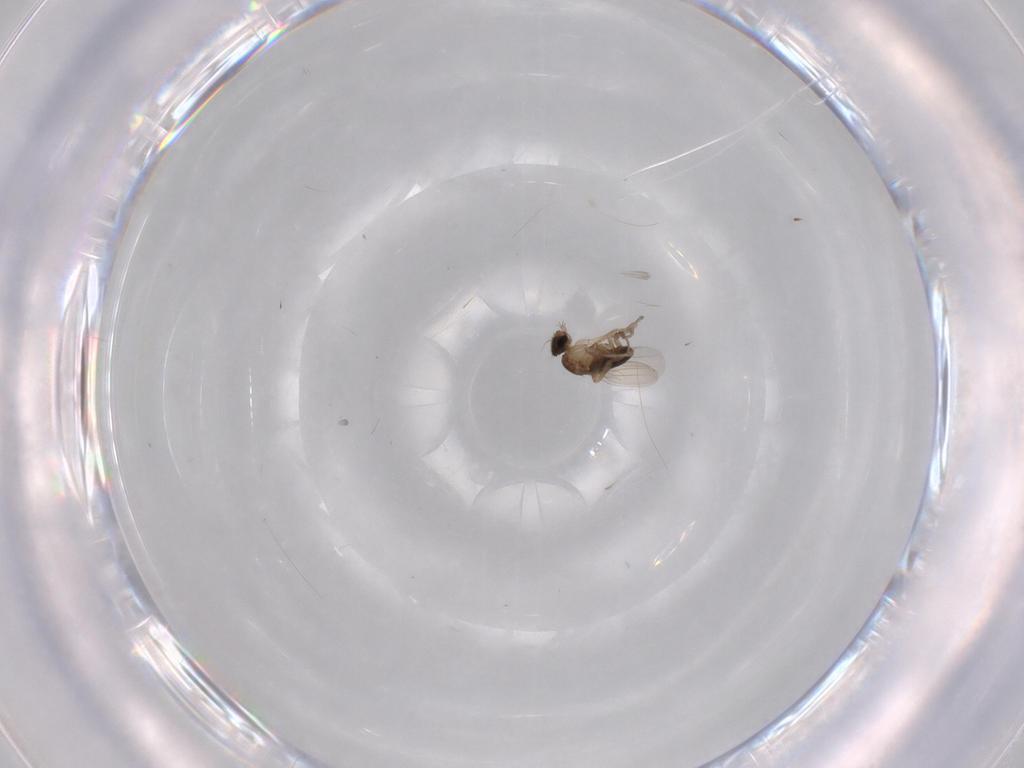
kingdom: Animalia
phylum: Arthropoda
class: Insecta
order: Diptera
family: Phoridae
